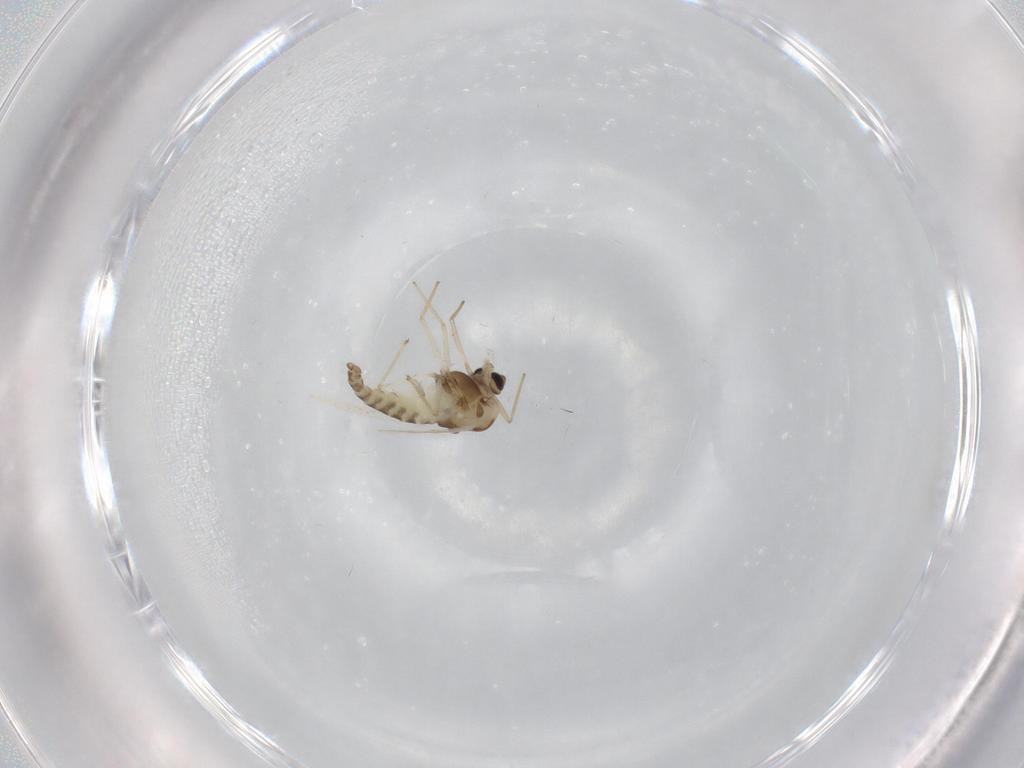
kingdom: Animalia
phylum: Arthropoda
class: Insecta
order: Diptera
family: Chironomidae
